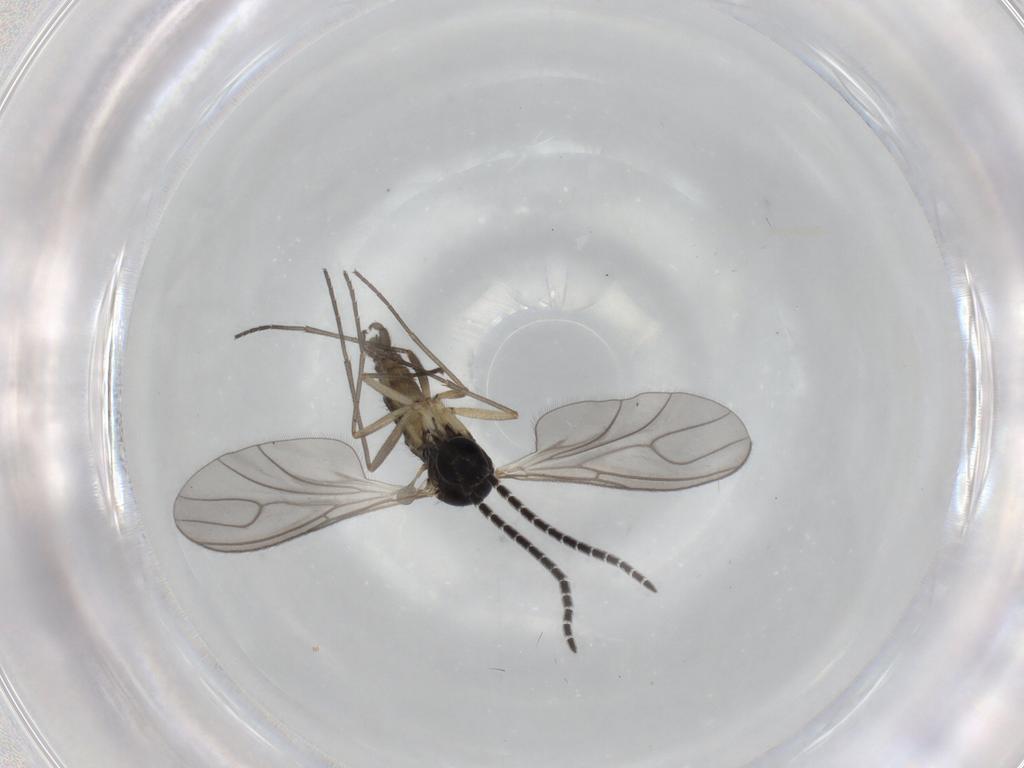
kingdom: Animalia
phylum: Arthropoda
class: Insecta
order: Diptera
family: Sciaridae
